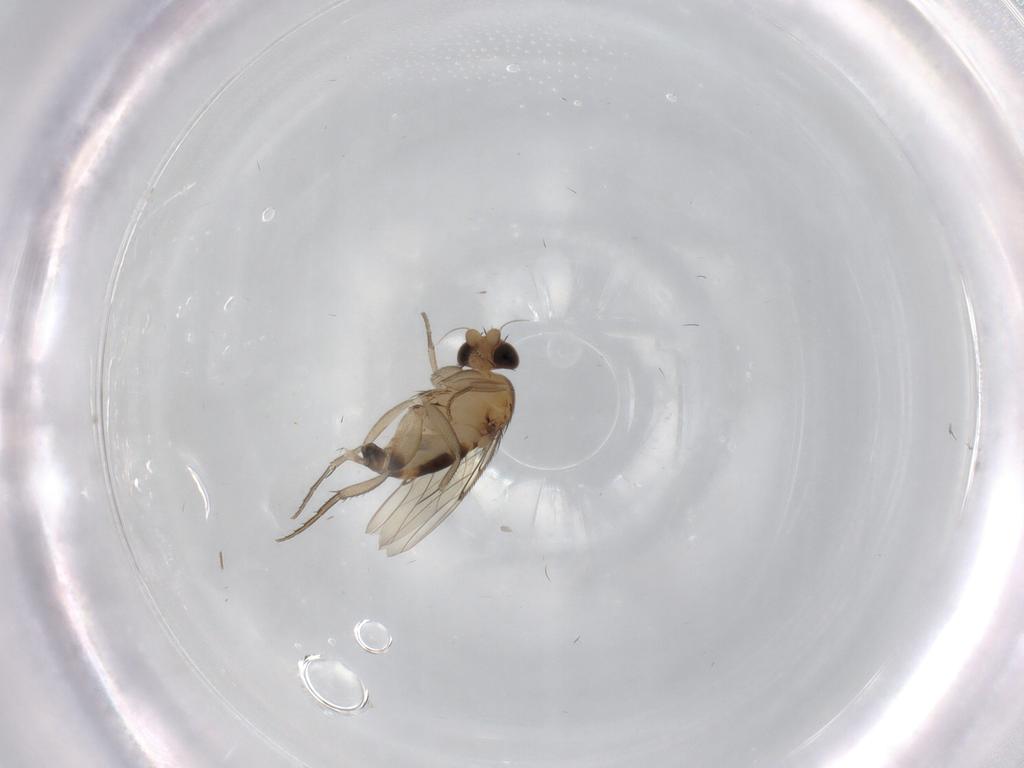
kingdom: Animalia
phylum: Arthropoda
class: Insecta
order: Diptera
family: Phoridae
